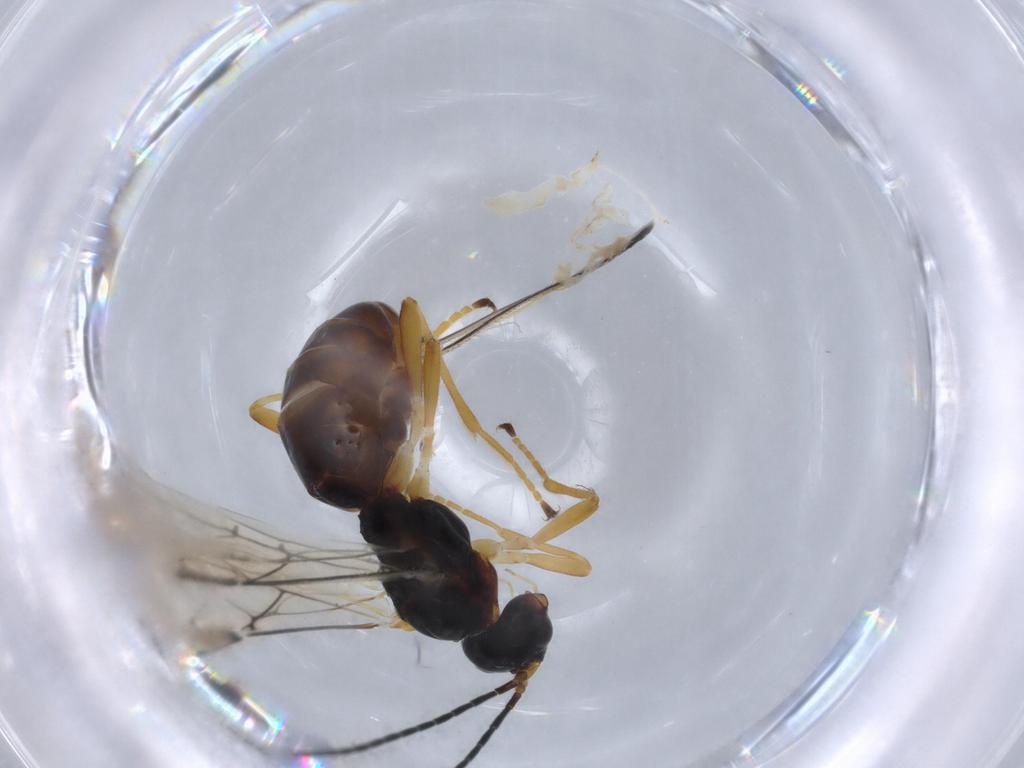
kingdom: Animalia
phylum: Arthropoda
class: Insecta
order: Hymenoptera
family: Braconidae
